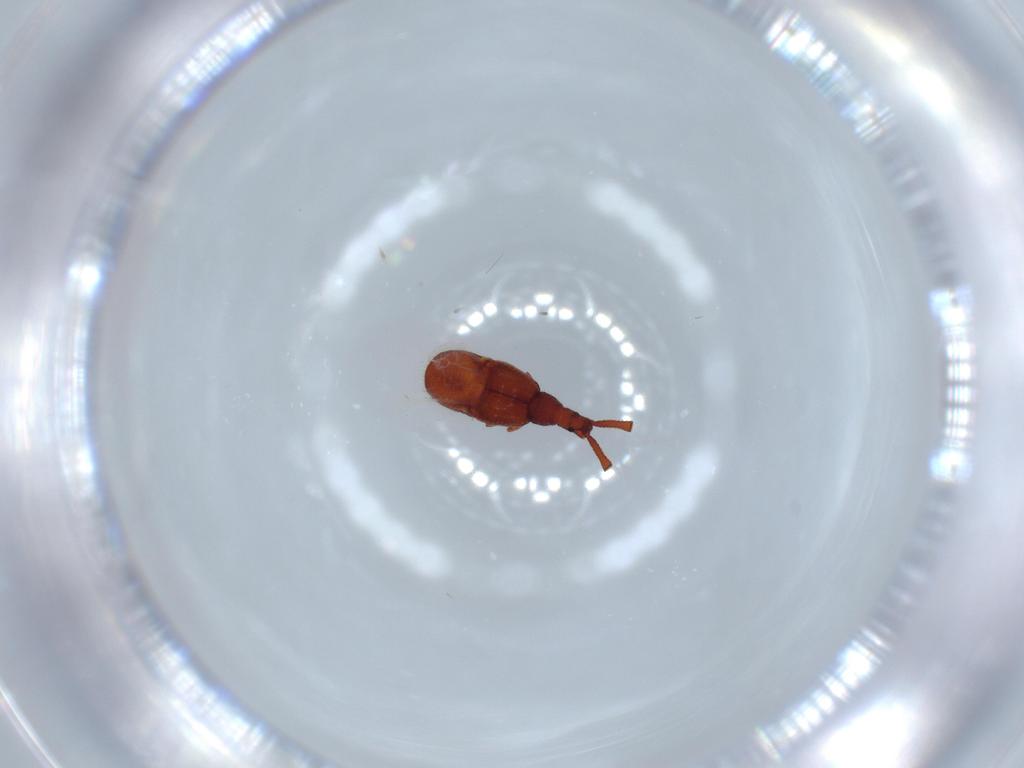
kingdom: Animalia
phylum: Arthropoda
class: Insecta
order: Coleoptera
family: Staphylinidae
